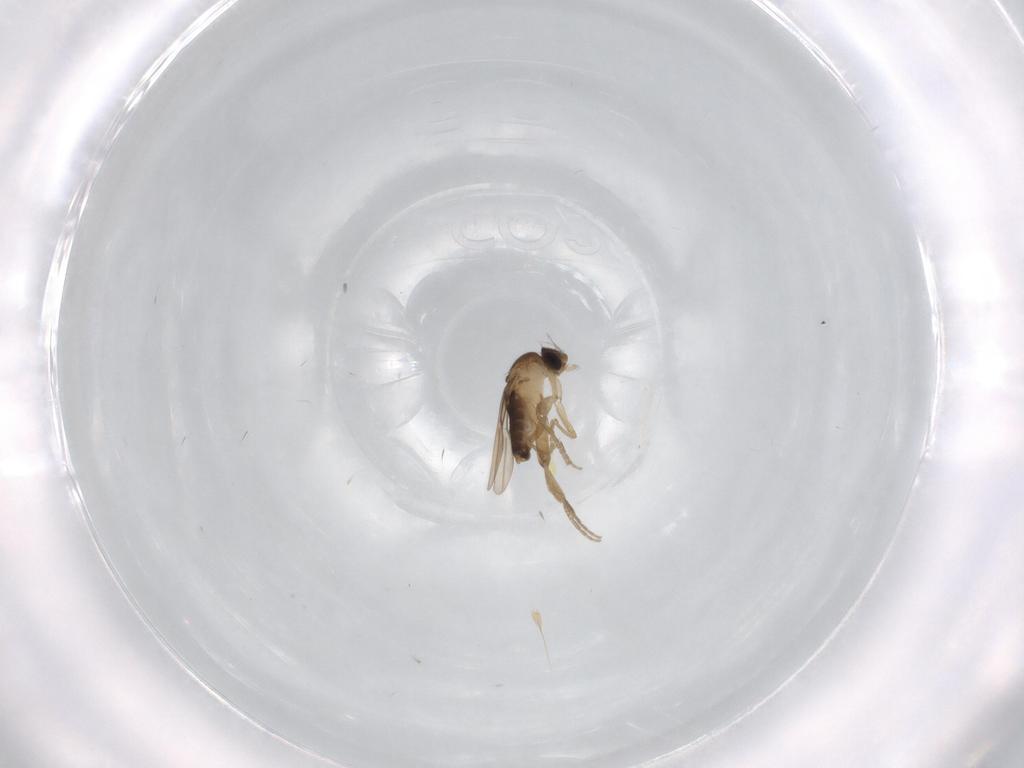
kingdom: Animalia
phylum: Arthropoda
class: Insecta
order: Diptera
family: Phoridae
